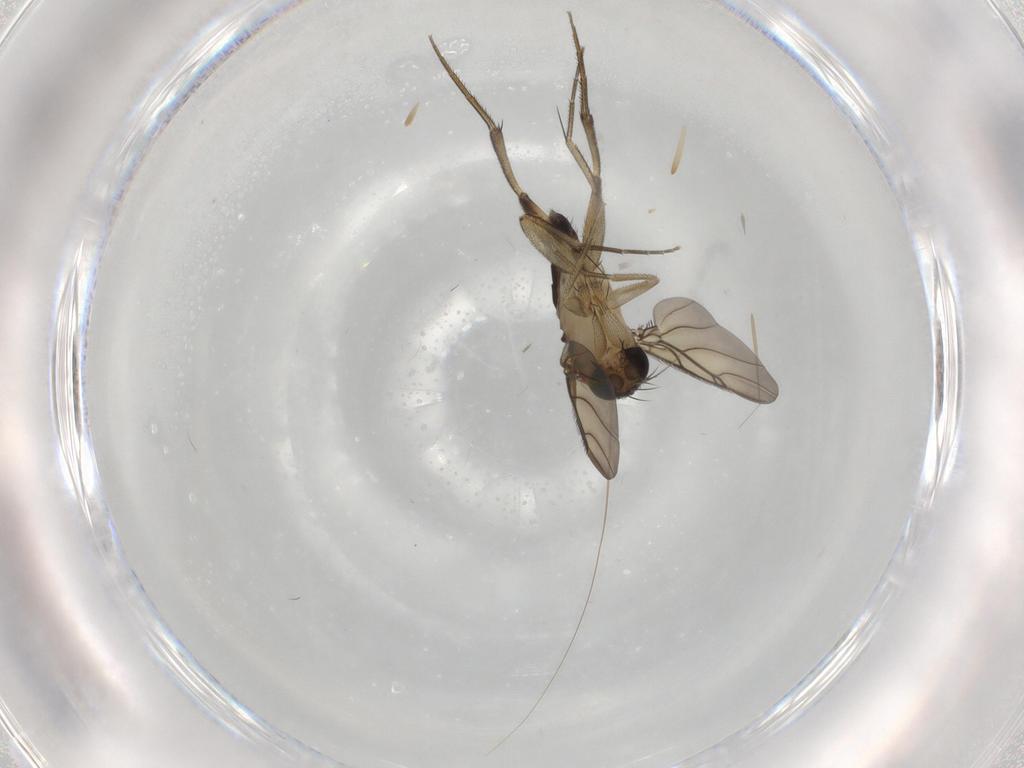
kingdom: Animalia
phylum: Arthropoda
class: Insecta
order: Diptera
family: Phoridae
